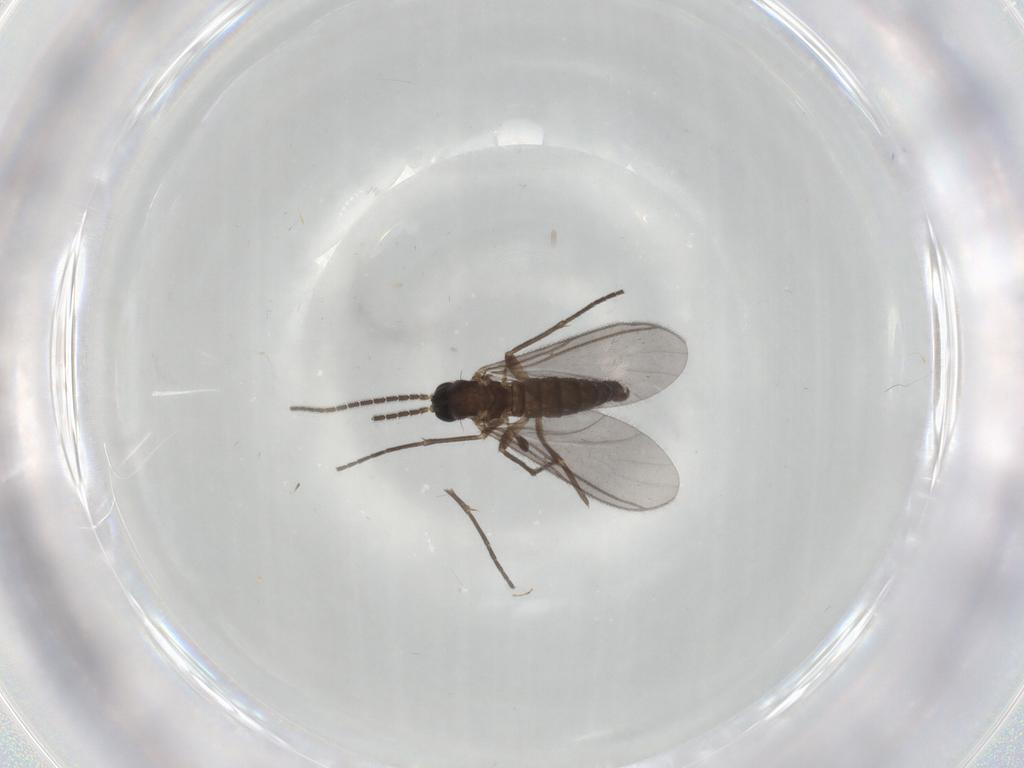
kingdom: Animalia
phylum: Arthropoda
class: Insecta
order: Diptera
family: Sciaridae
